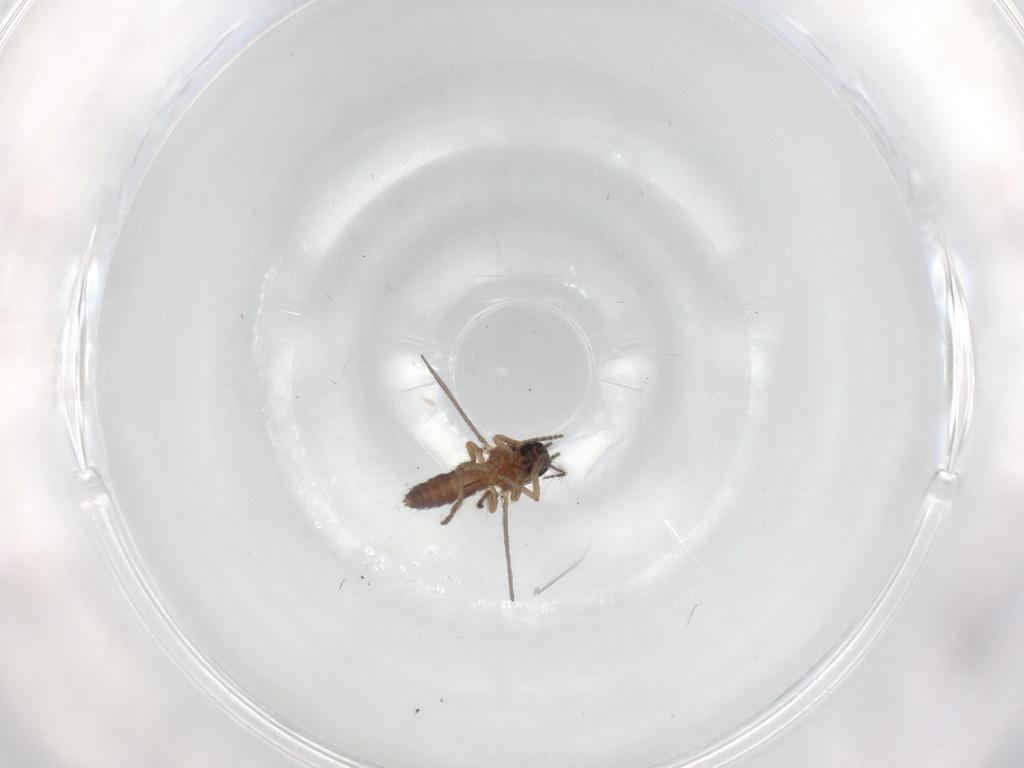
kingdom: Animalia
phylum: Arthropoda
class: Insecta
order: Diptera
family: Ceratopogonidae
